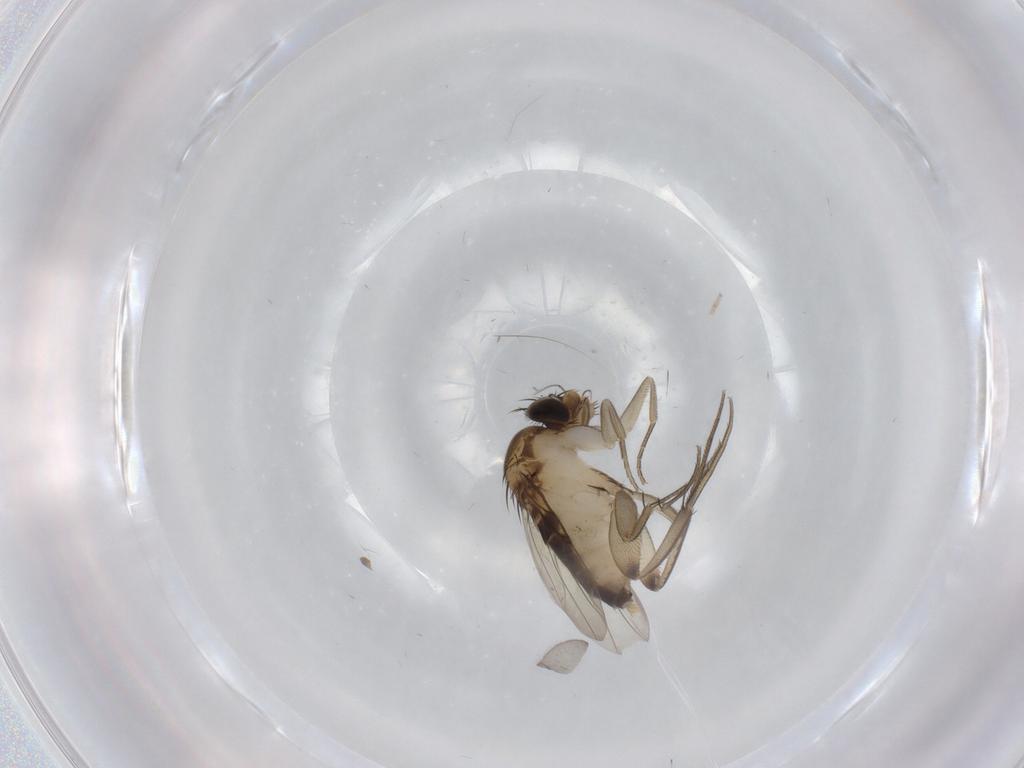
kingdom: Animalia
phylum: Arthropoda
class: Insecta
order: Diptera
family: Phoridae
